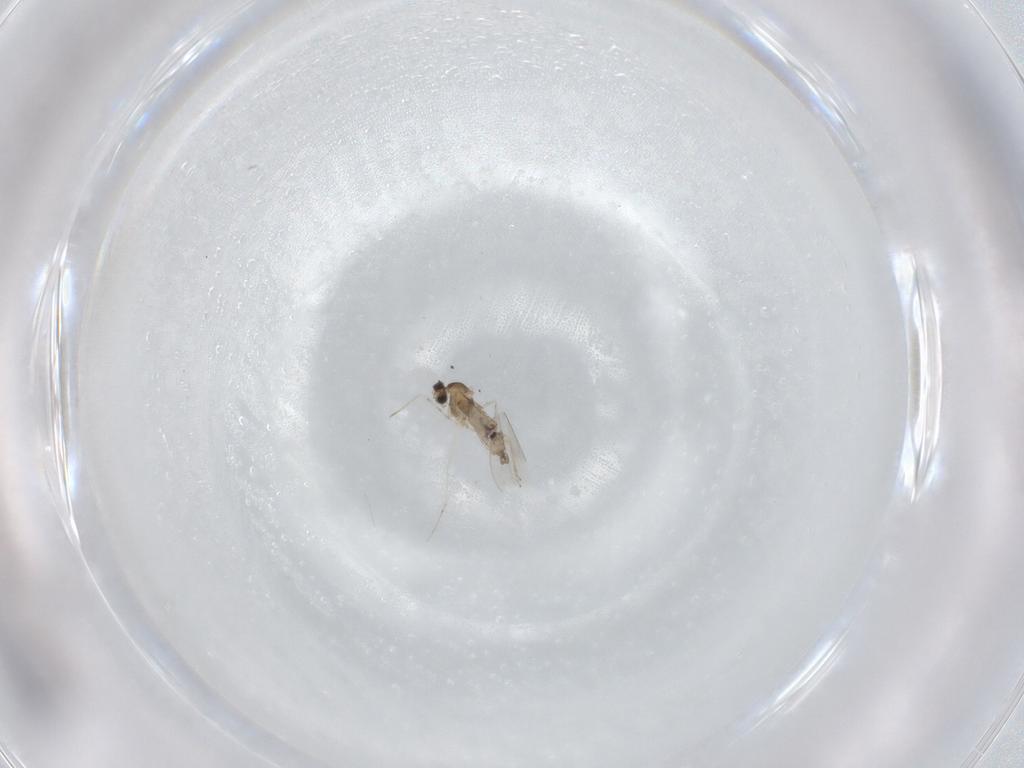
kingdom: Animalia
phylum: Arthropoda
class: Insecta
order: Diptera
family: Cecidomyiidae
